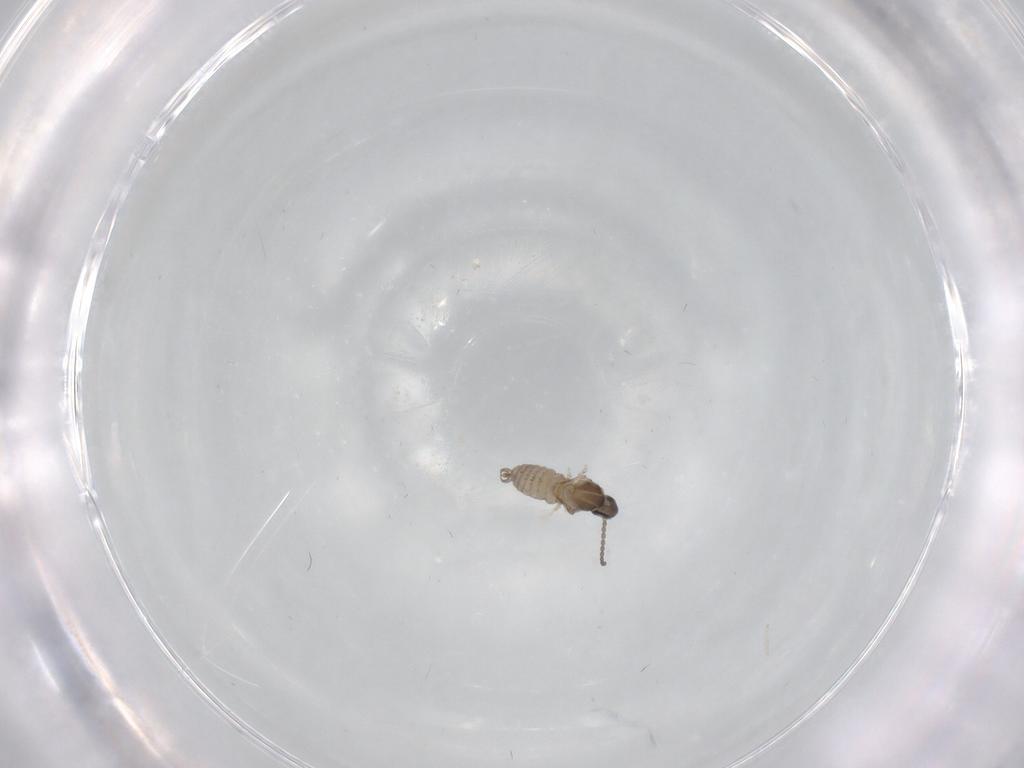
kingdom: Animalia
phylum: Arthropoda
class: Insecta
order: Diptera
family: Cecidomyiidae
